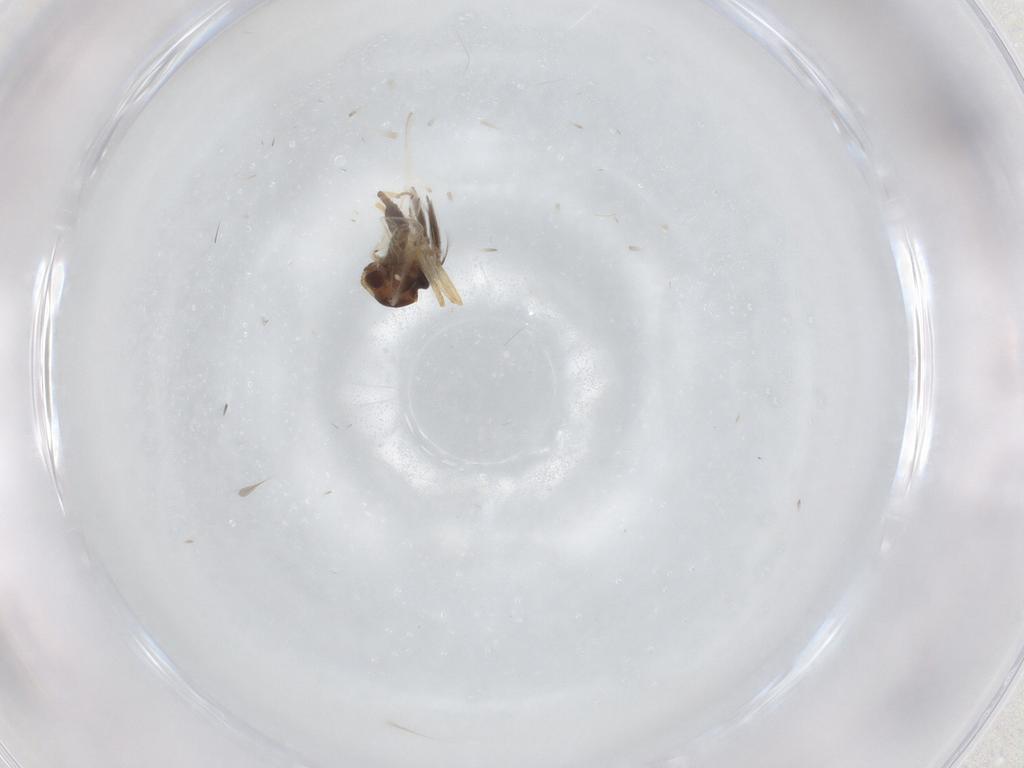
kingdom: Animalia
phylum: Arthropoda
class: Insecta
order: Diptera
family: Ceratopogonidae
